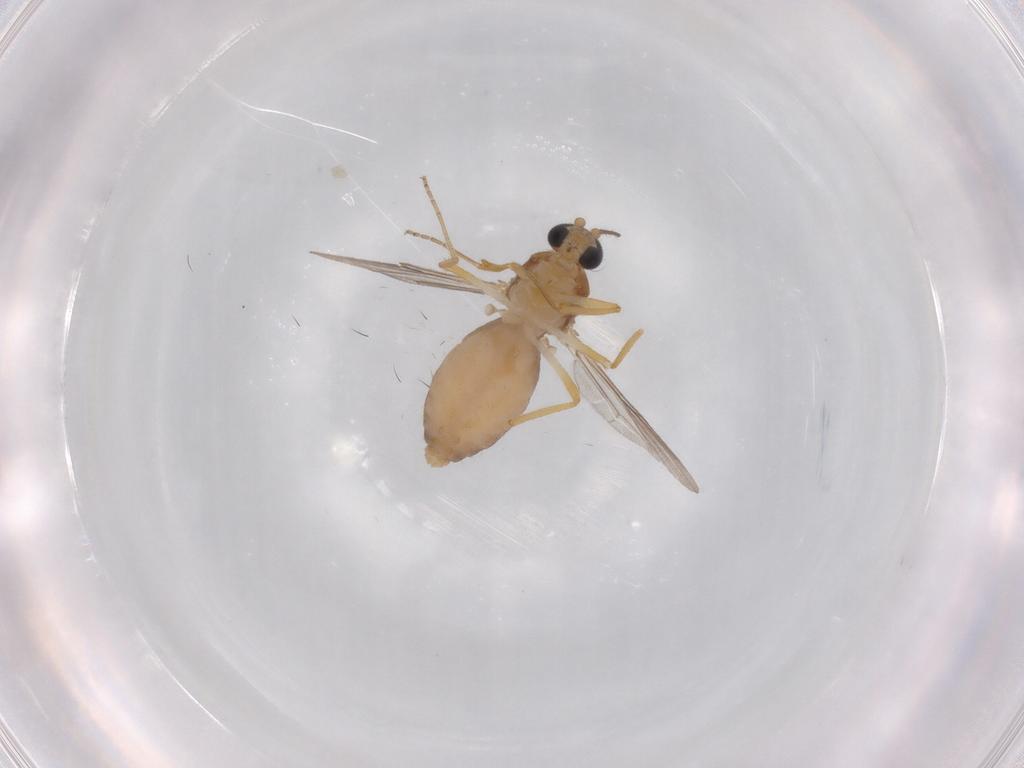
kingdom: Animalia
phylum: Arthropoda
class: Insecta
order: Diptera
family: Ceratopogonidae
